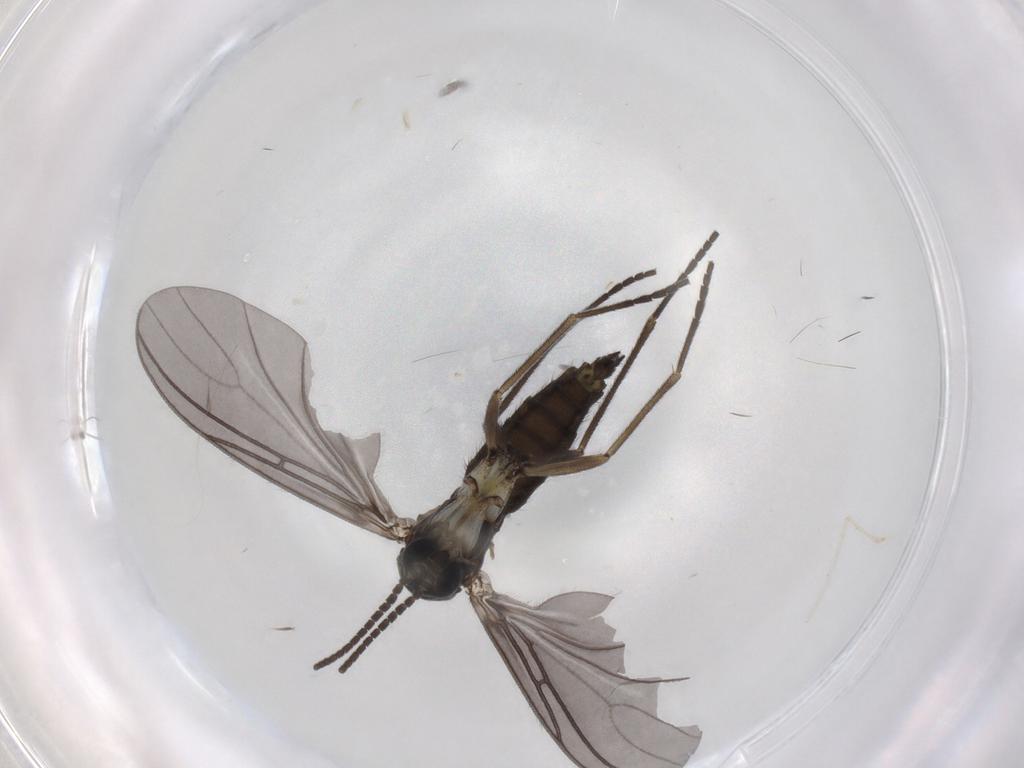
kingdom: Animalia
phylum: Arthropoda
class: Insecta
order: Diptera
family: Sciaridae
